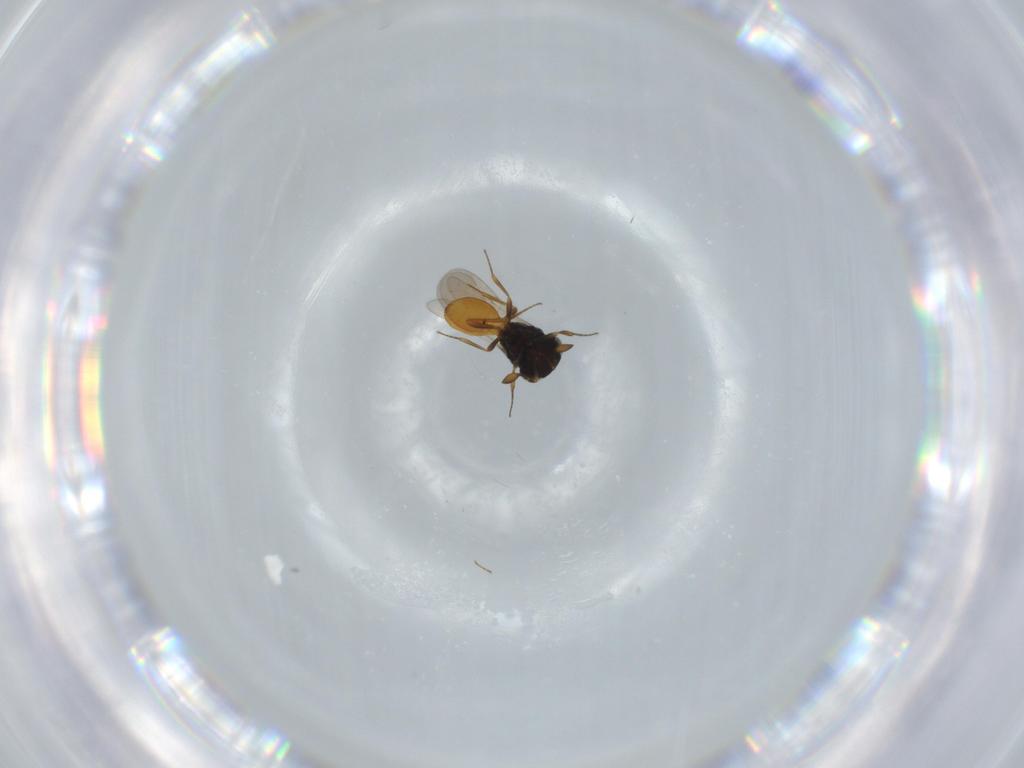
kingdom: Animalia
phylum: Arthropoda
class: Insecta
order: Hymenoptera
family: Scelionidae
